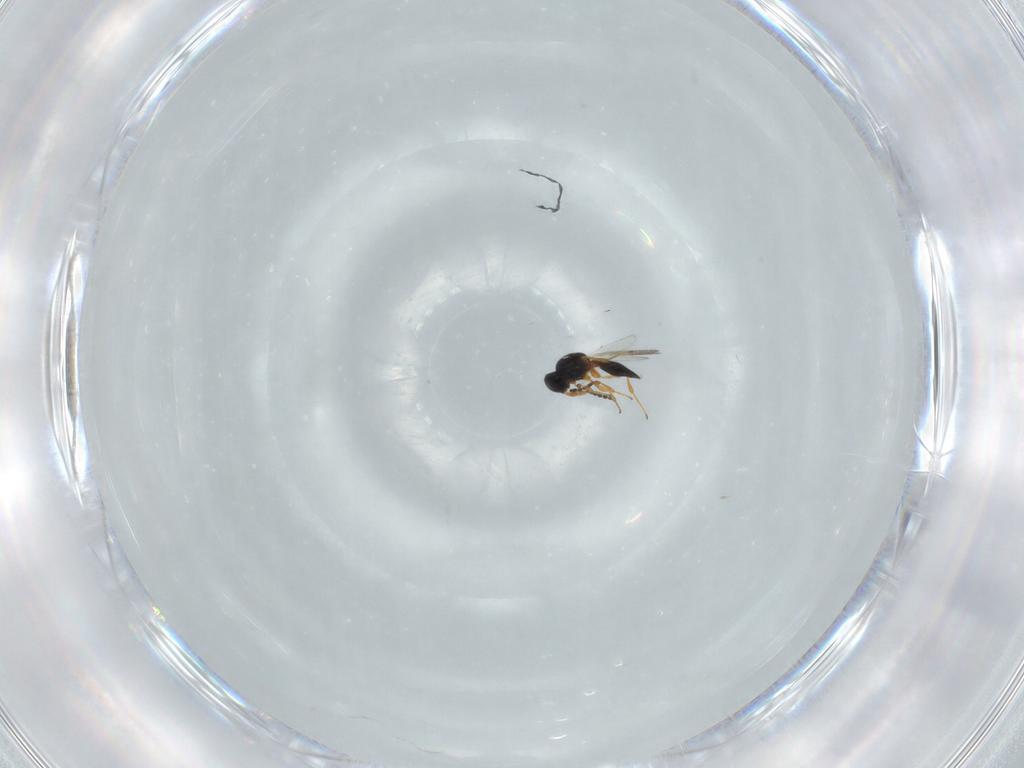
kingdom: Animalia
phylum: Arthropoda
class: Insecta
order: Hymenoptera
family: Platygastridae
